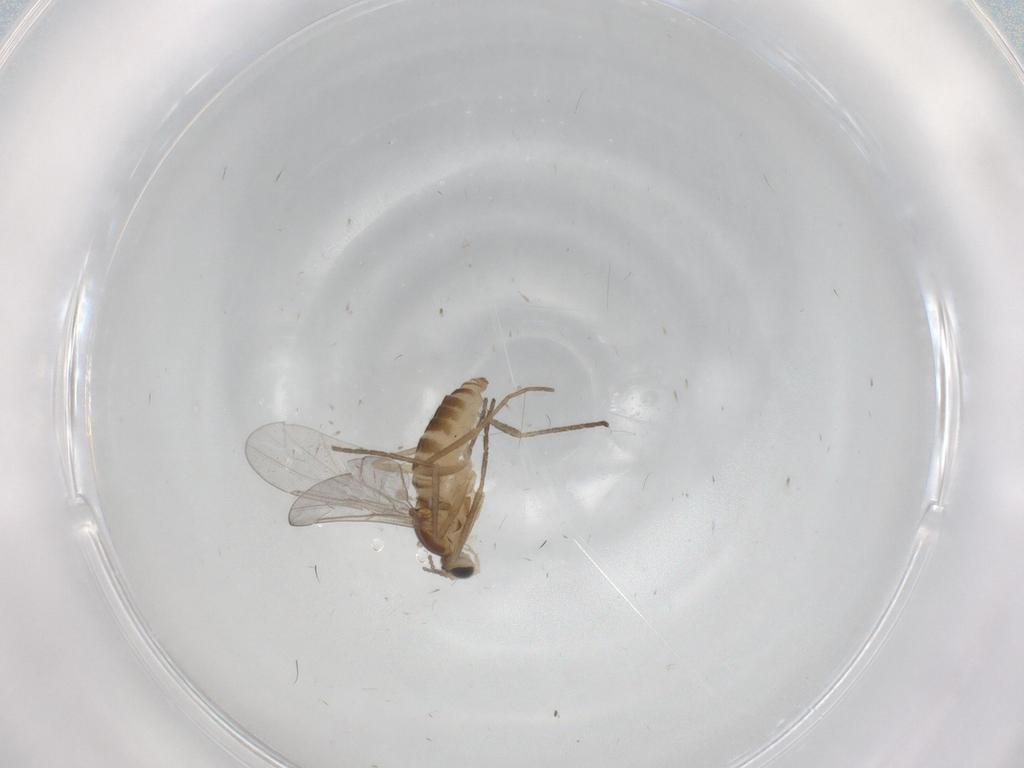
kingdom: Animalia
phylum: Arthropoda
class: Insecta
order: Diptera
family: Cecidomyiidae
